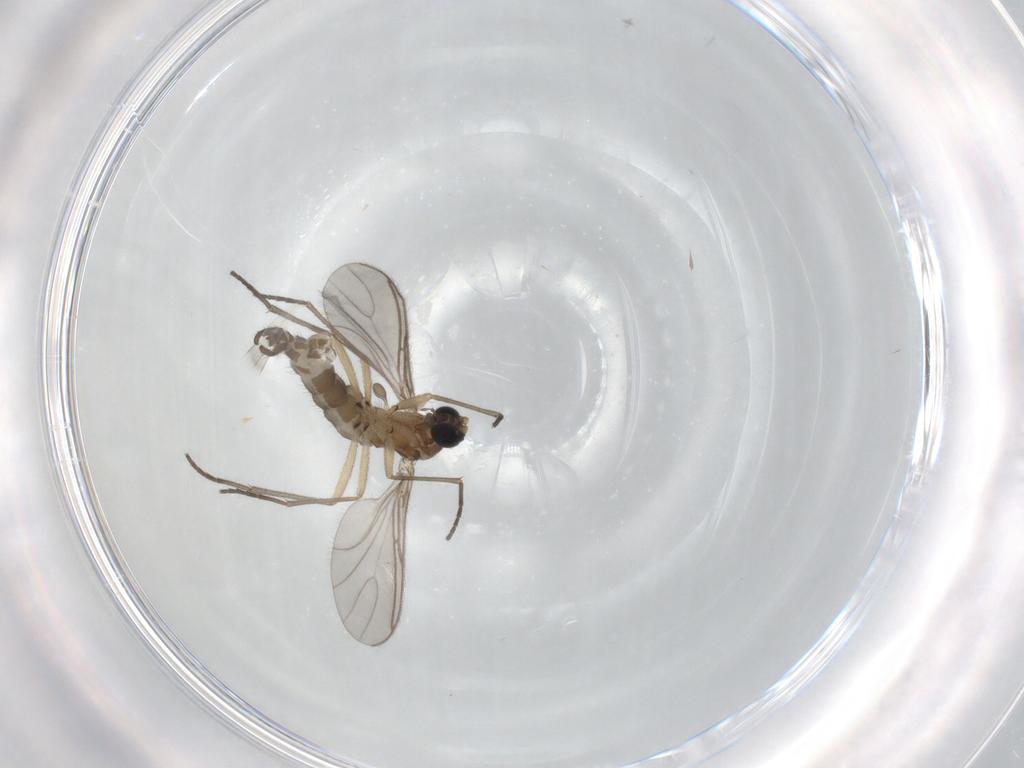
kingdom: Animalia
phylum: Arthropoda
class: Insecta
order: Diptera
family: Sciaridae
